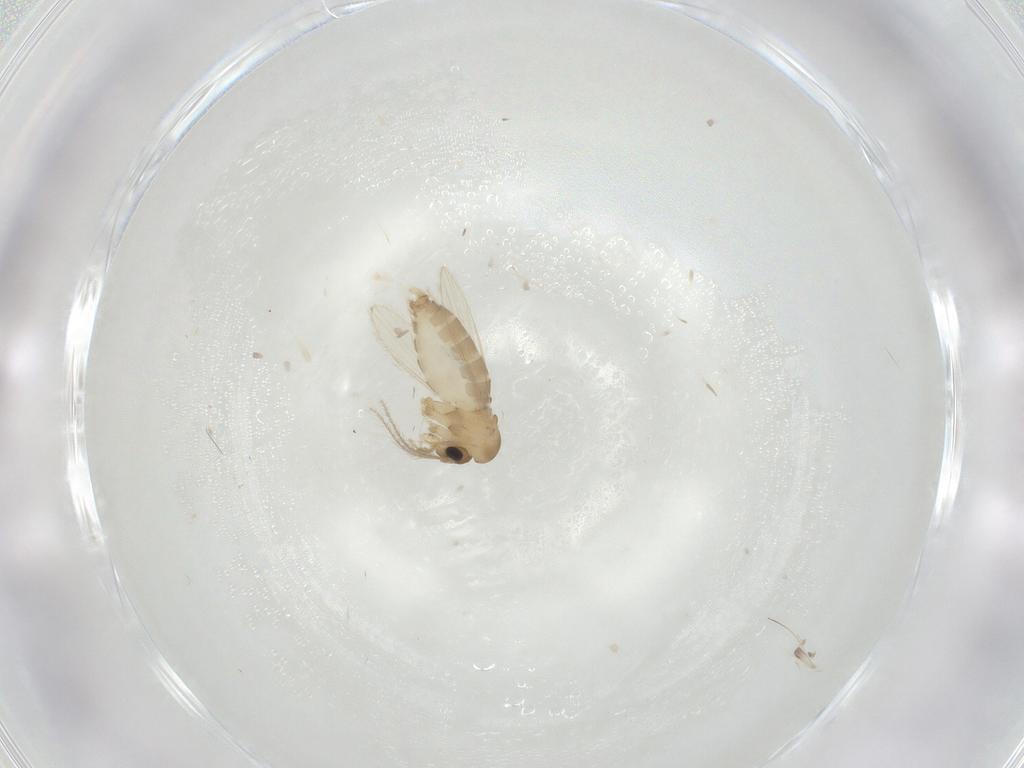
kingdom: Animalia
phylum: Arthropoda
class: Insecta
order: Diptera
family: Psychodidae
